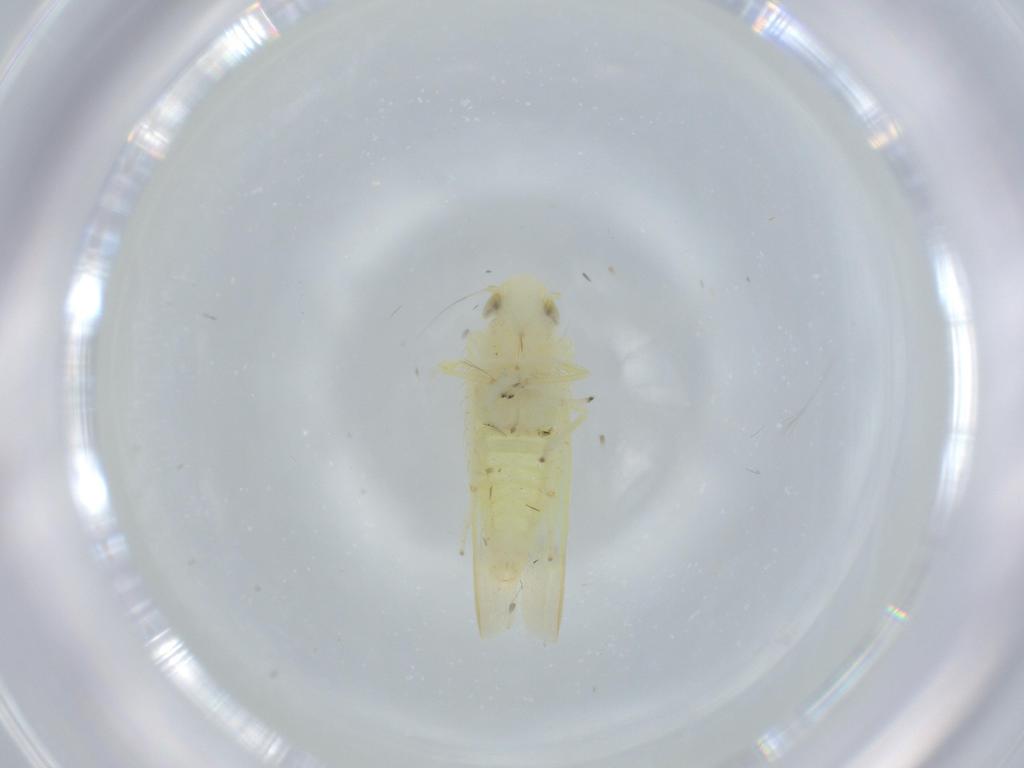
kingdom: Animalia
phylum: Arthropoda
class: Insecta
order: Hemiptera
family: Cicadellidae
